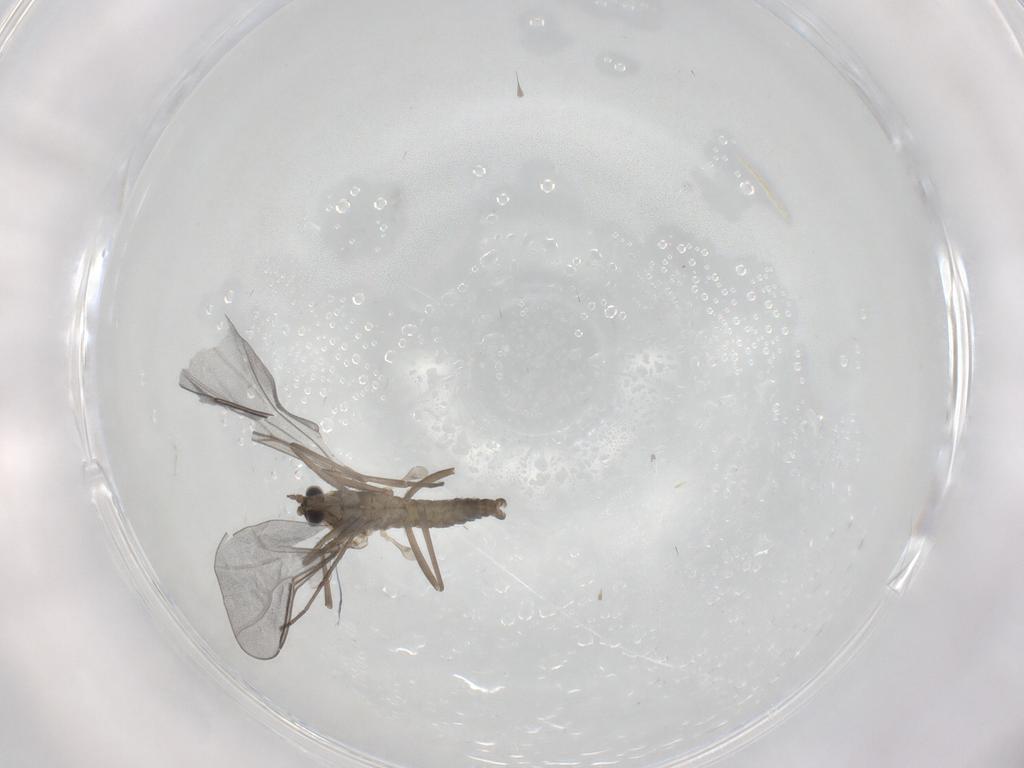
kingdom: Animalia
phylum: Arthropoda
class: Insecta
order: Diptera
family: Cecidomyiidae
